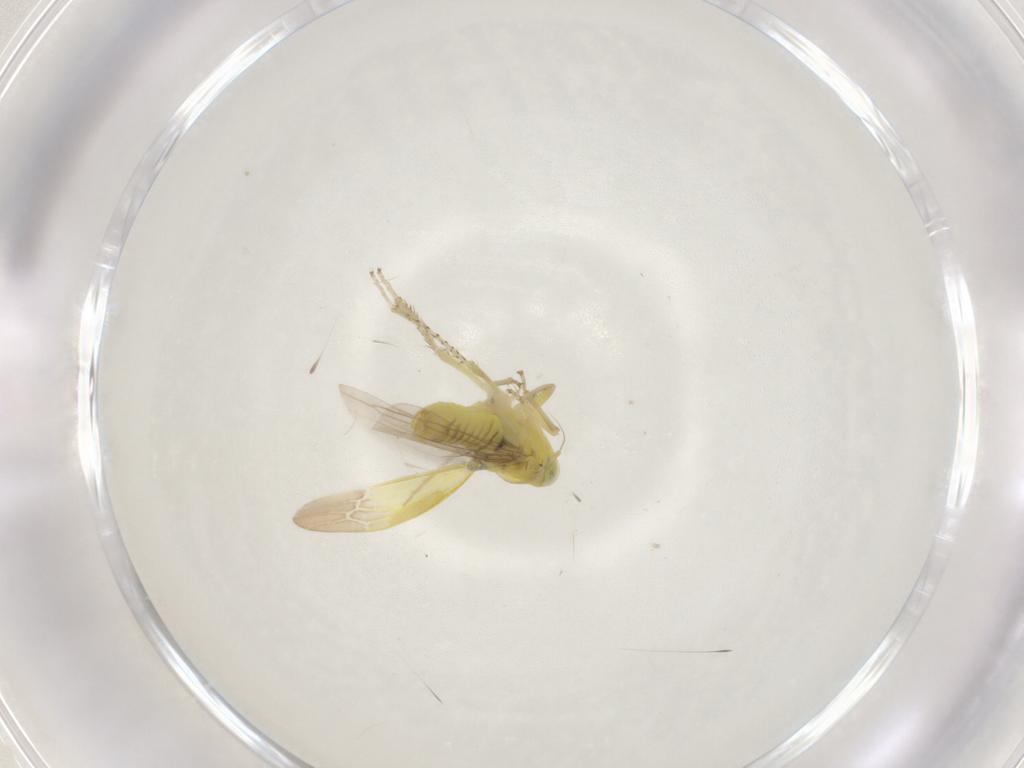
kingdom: Animalia
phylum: Arthropoda
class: Insecta
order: Hemiptera
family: Cicadellidae
